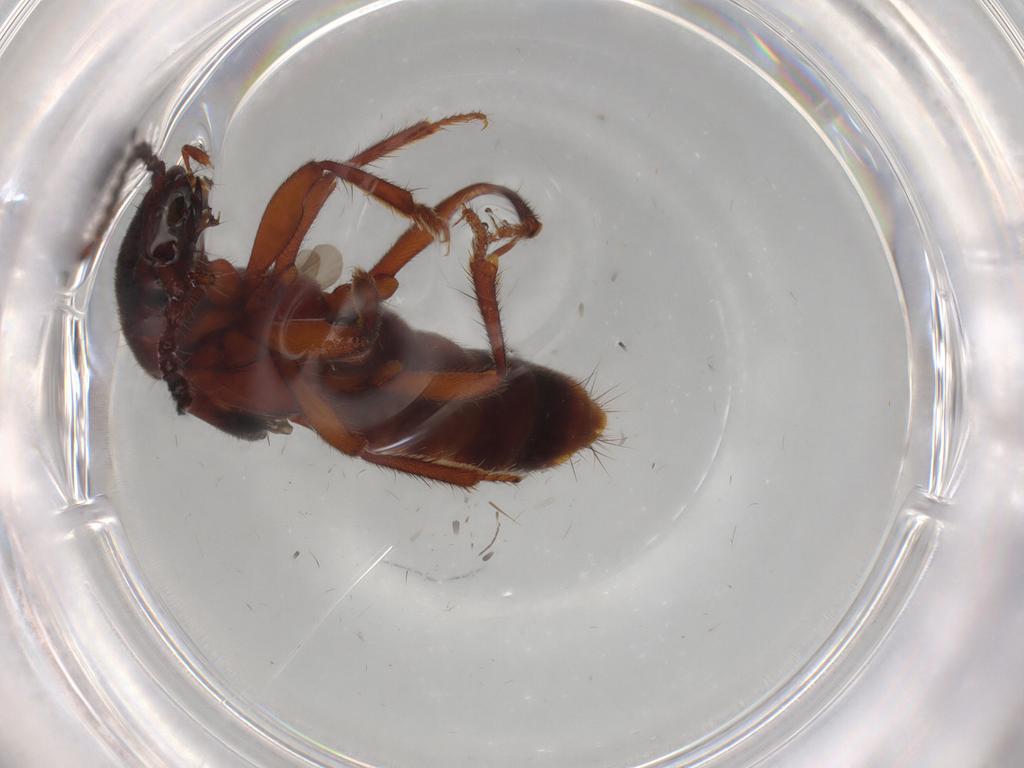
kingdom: Animalia
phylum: Arthropoda
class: Insecta
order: Coleoptera
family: Staphylinidae
